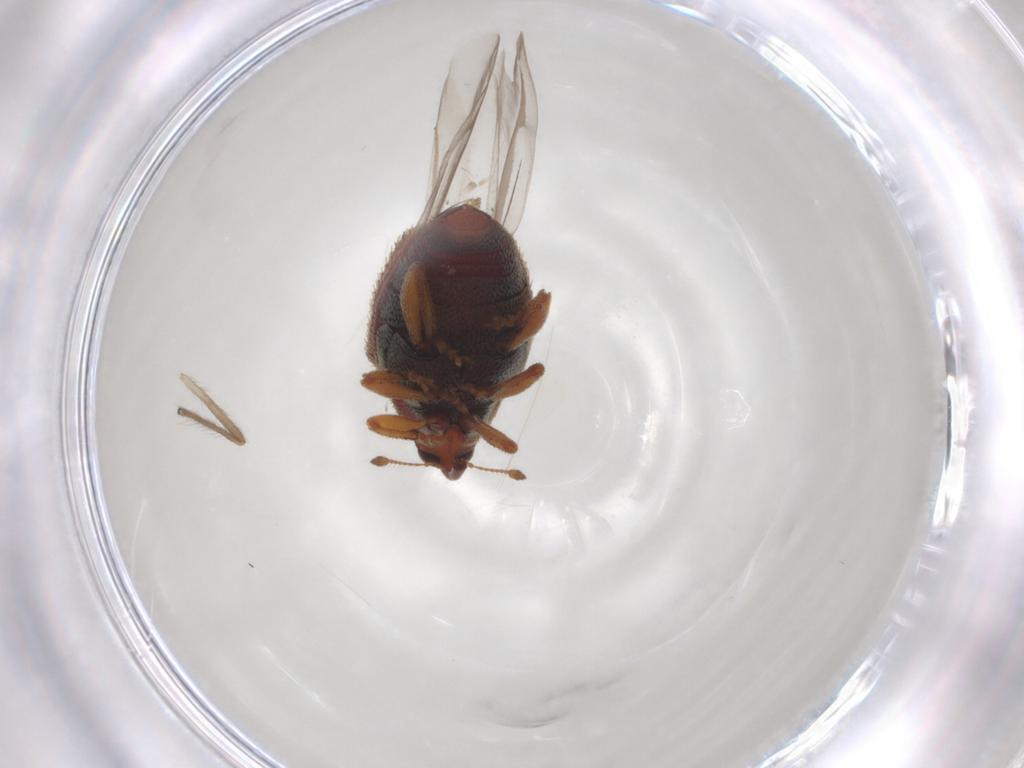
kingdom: Animalia
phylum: Arthropoda
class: Insecta
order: Coleoptera
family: Curculionidae
